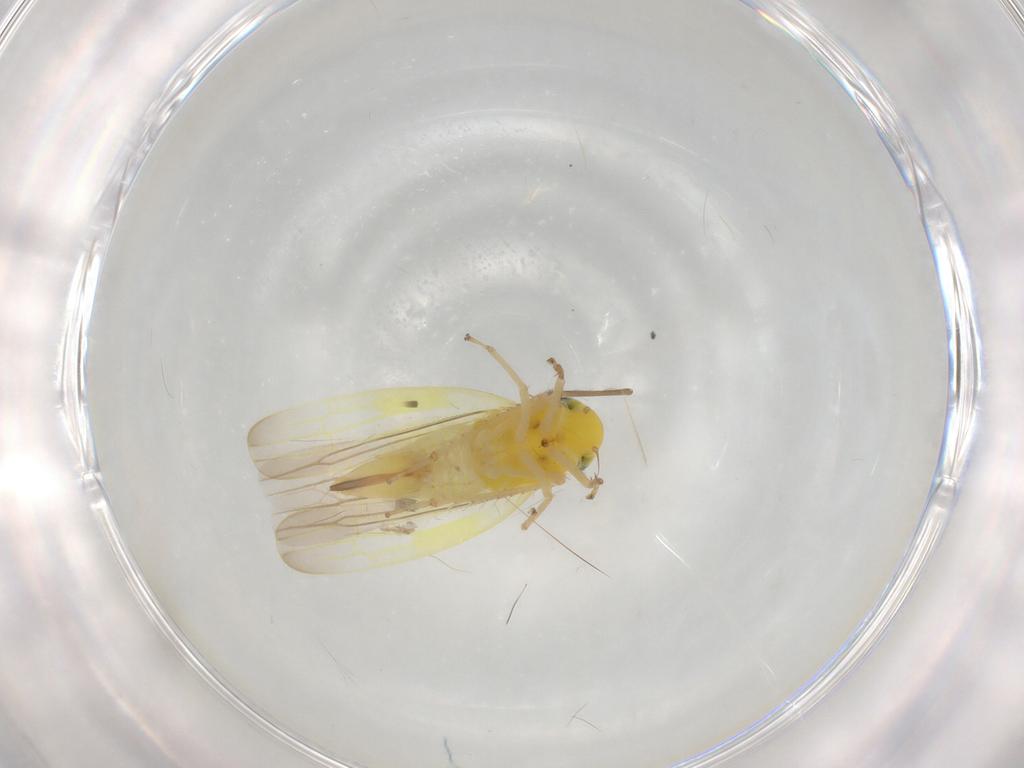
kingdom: Animalia
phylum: Arthropoda
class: Insecta
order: Hemiptera
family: Cicadellidae
